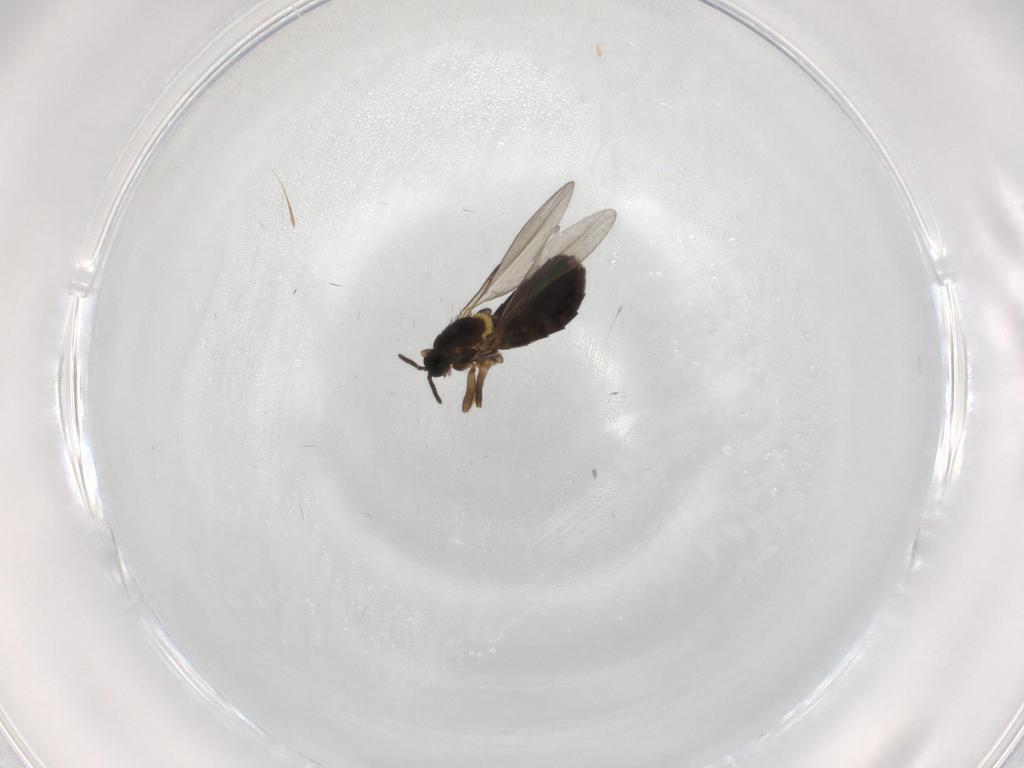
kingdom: Animalia
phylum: Arthropoda
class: Insecta
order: Diptera
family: Scatopsidae
